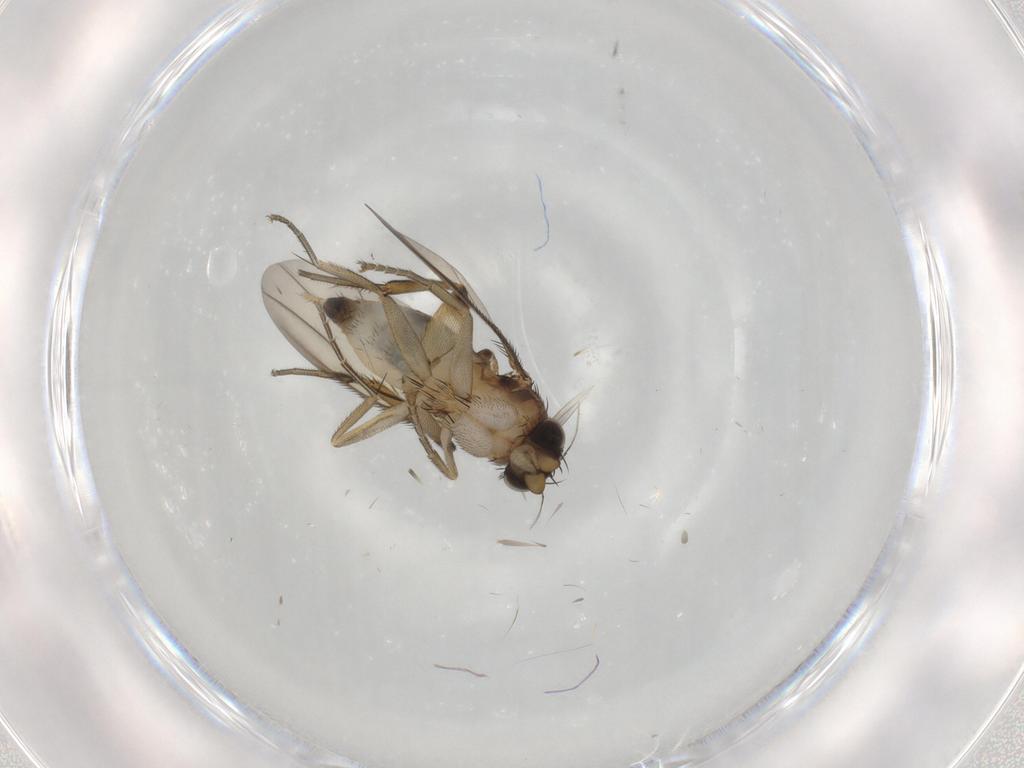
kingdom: Animalia
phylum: Arthropoda
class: Insecta
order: Diptera
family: Phoridae
